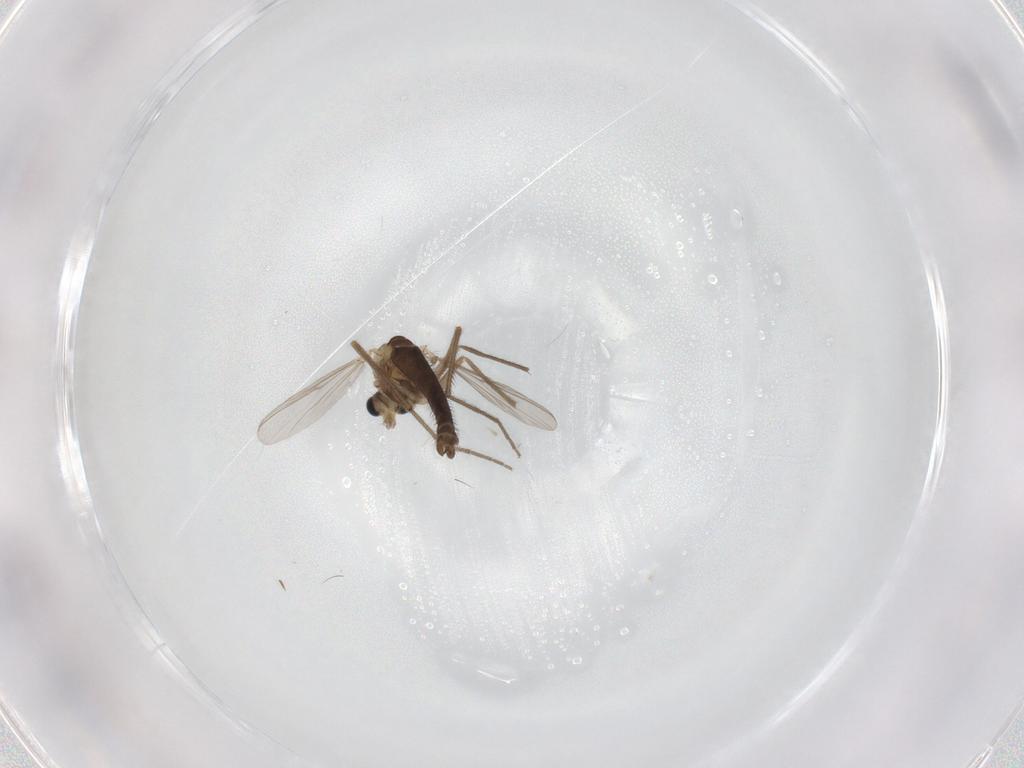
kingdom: Animalia
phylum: Arthropoda
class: Insecta
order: Diptera
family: Chironomidae
